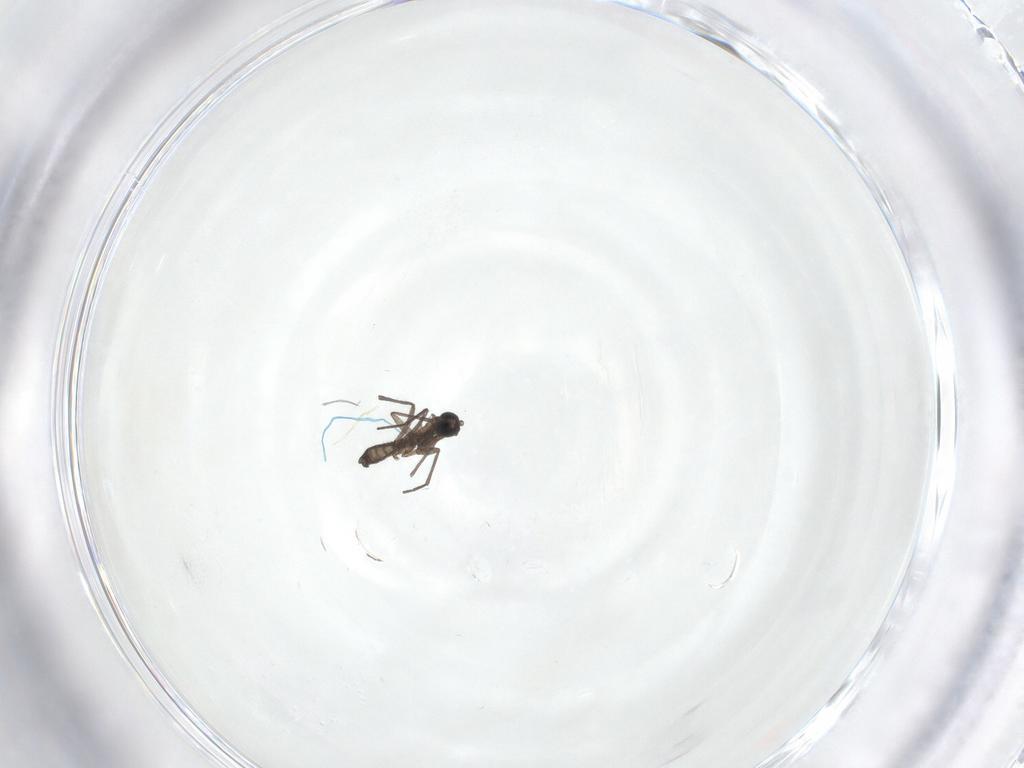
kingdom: Animalia
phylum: Arthropoda
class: Insecta
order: Diptera
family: Sciaridae
